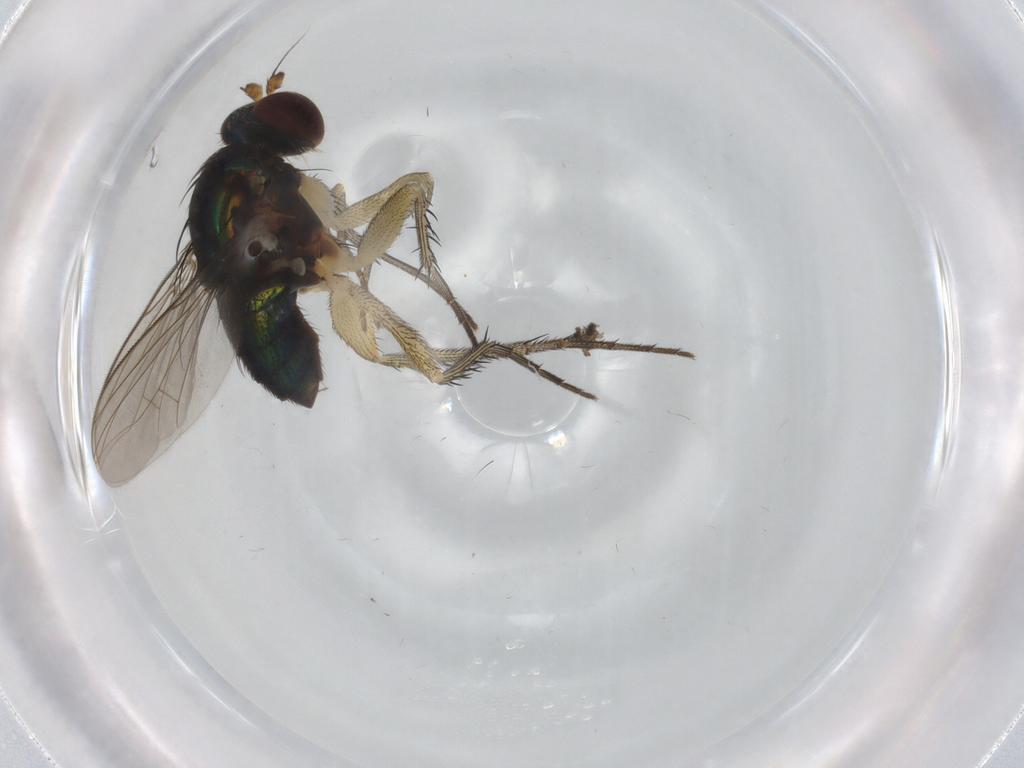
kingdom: Animalia
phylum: Arthropoda
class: Insecta
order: Diptera
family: Dolichopodidae
